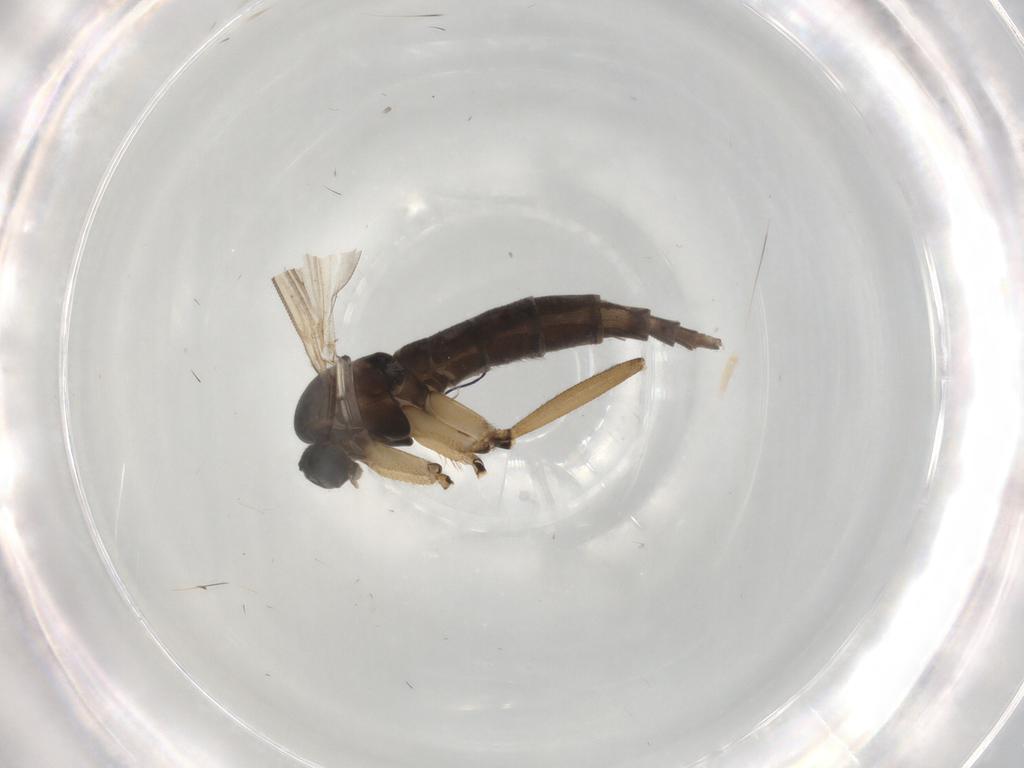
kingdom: Animalia
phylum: Arthropoda
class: Insecta
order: Diptera
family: Sciaridae
